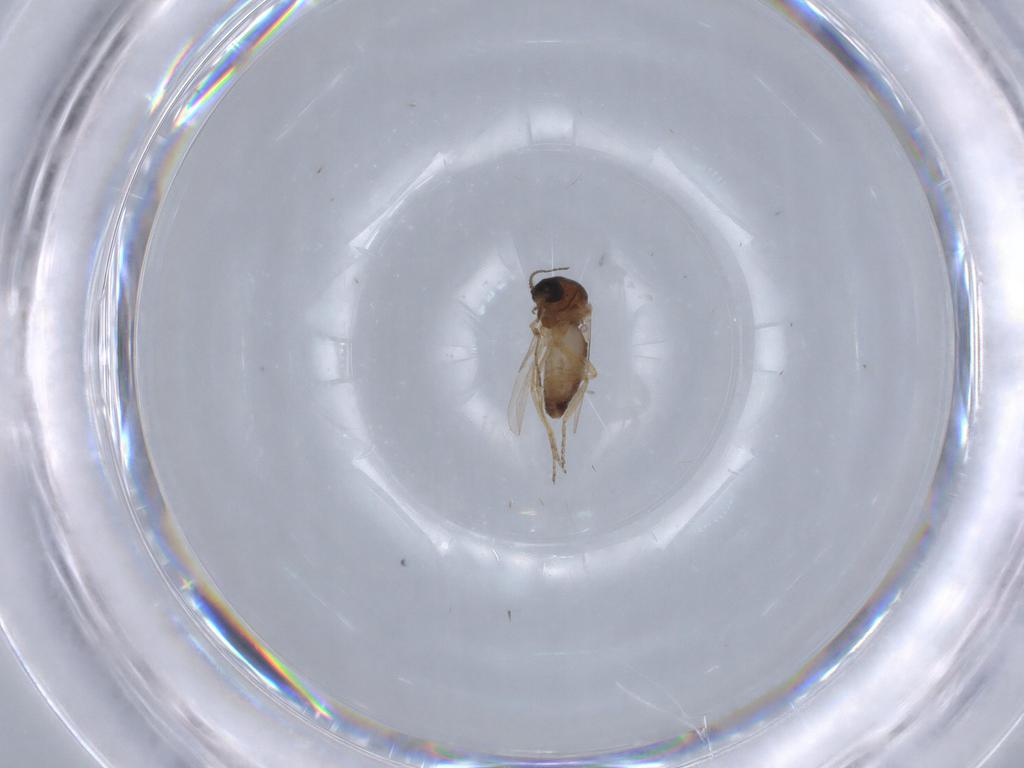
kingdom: Animalia
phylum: Arthropoda
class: Insecta
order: Diptera
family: Ceratopogonidae
